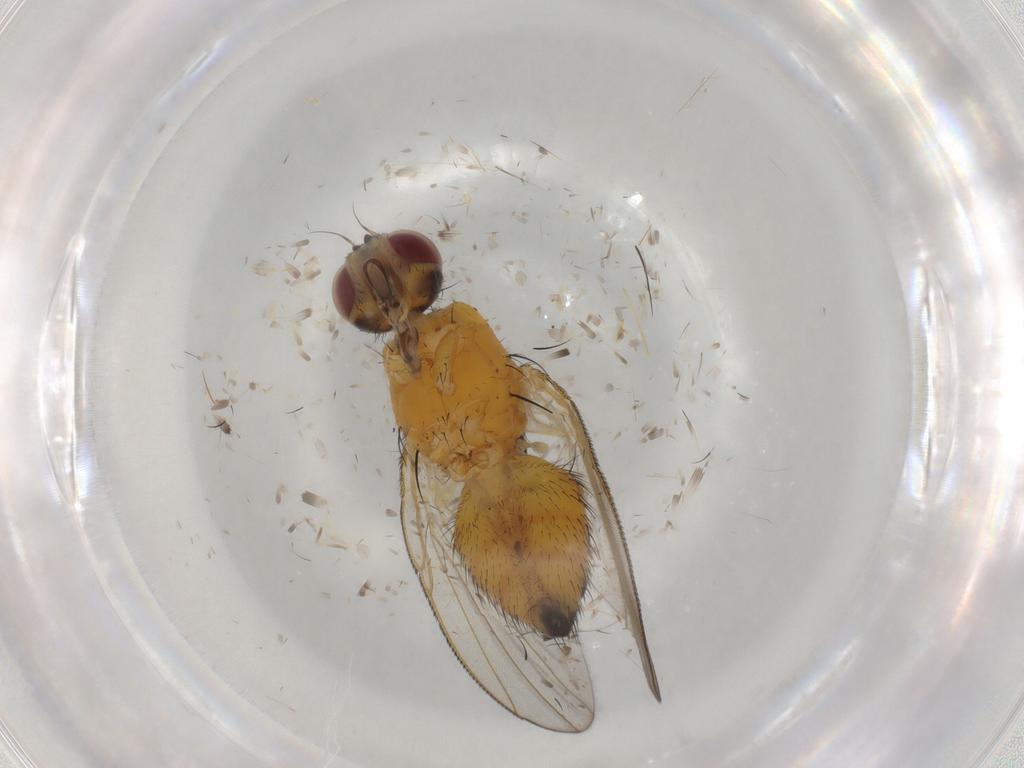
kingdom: Animalia
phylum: Arthropoda
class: Insecta
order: Diptera
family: Muscidae
